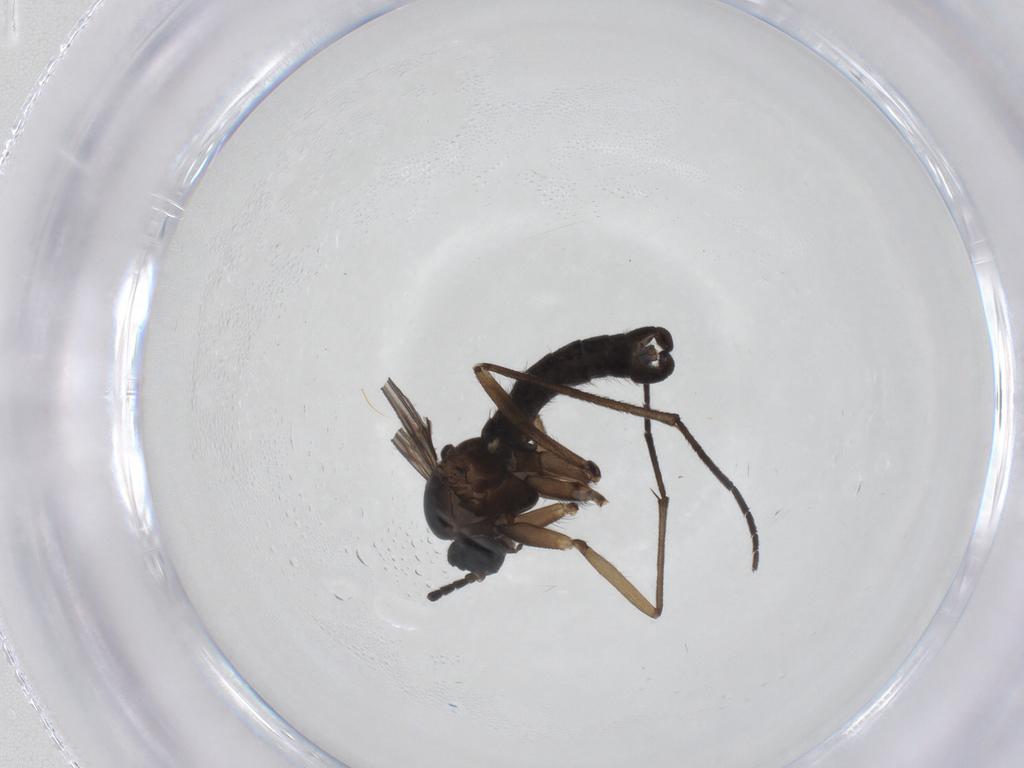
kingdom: Animalia
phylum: Arthropoda
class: Insecta
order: Diptera
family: Sciaridae
